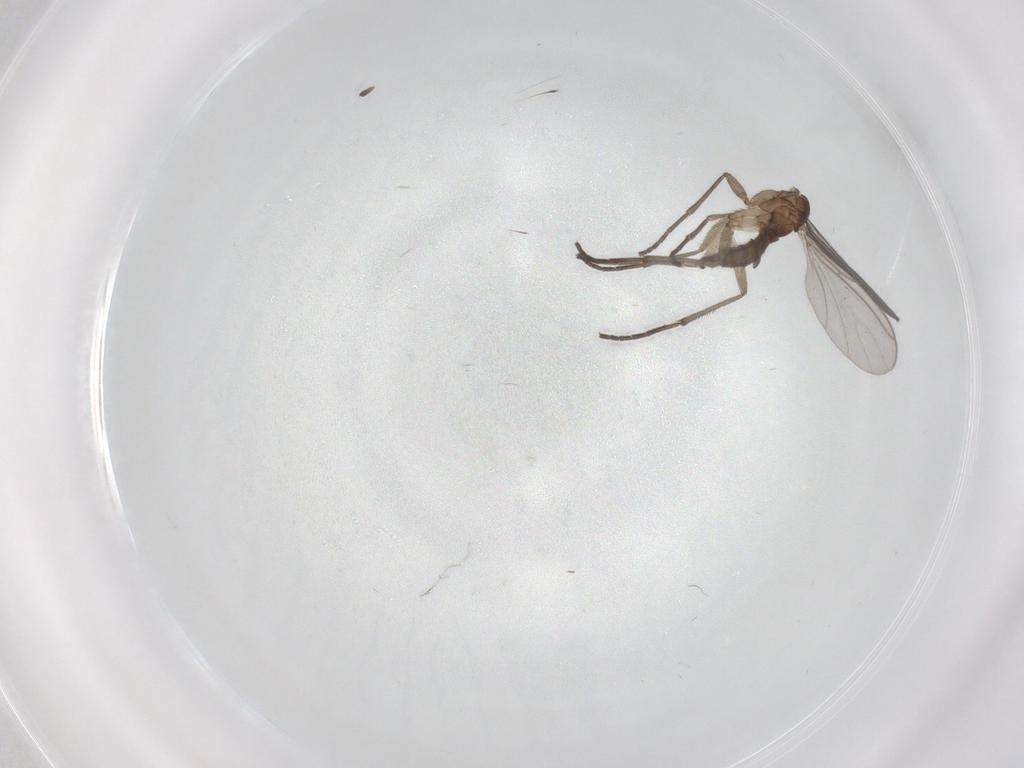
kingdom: Animalia
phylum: Arthropoda
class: Insecta
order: Diptera
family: Sciaridae
